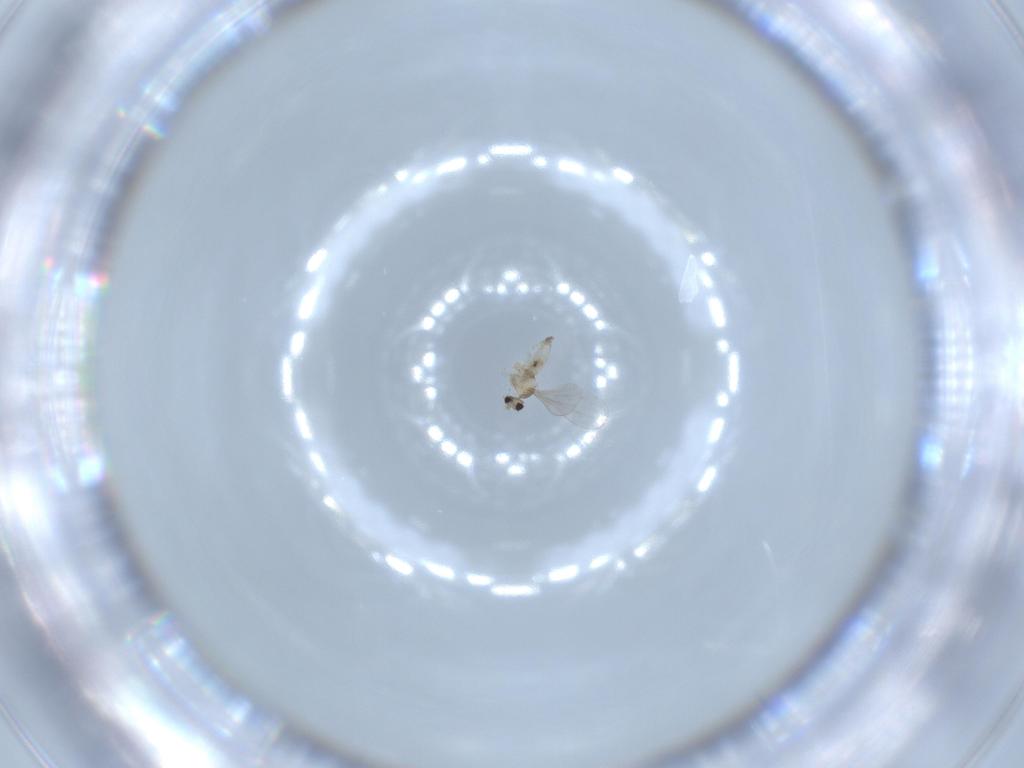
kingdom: Animalia
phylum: Arthropoda
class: Insecta
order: Diptera
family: Cecidomyiidae
